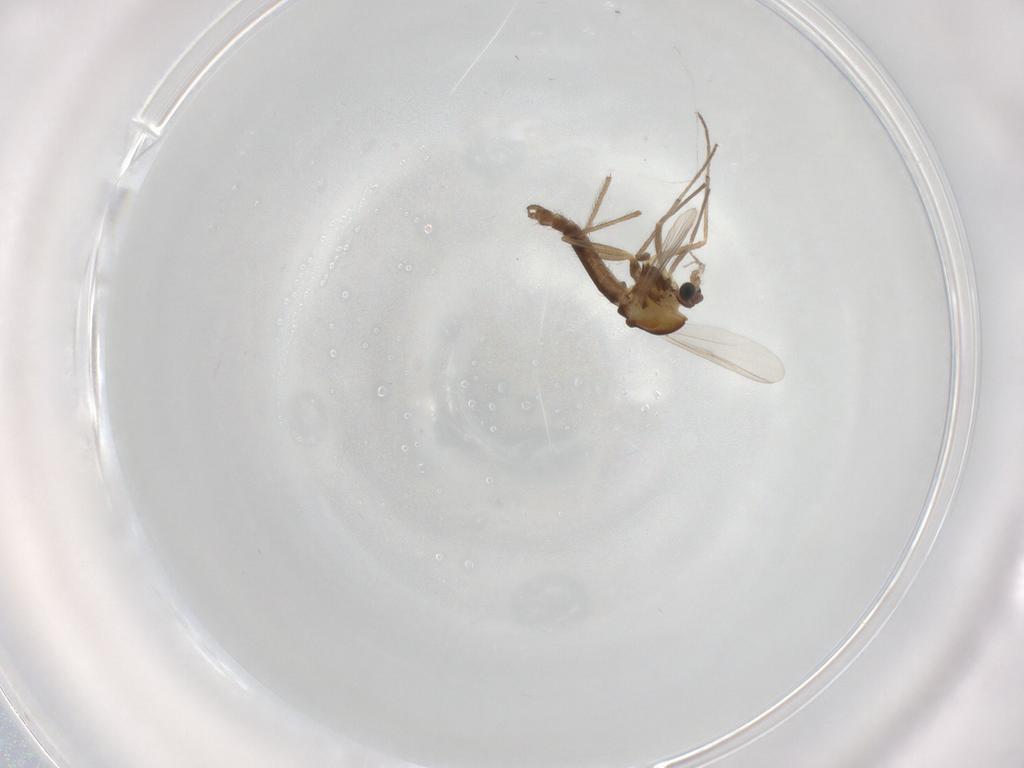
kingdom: Animalia
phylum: Arthropoda
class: Insecta
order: Diptera
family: Chironomidae
